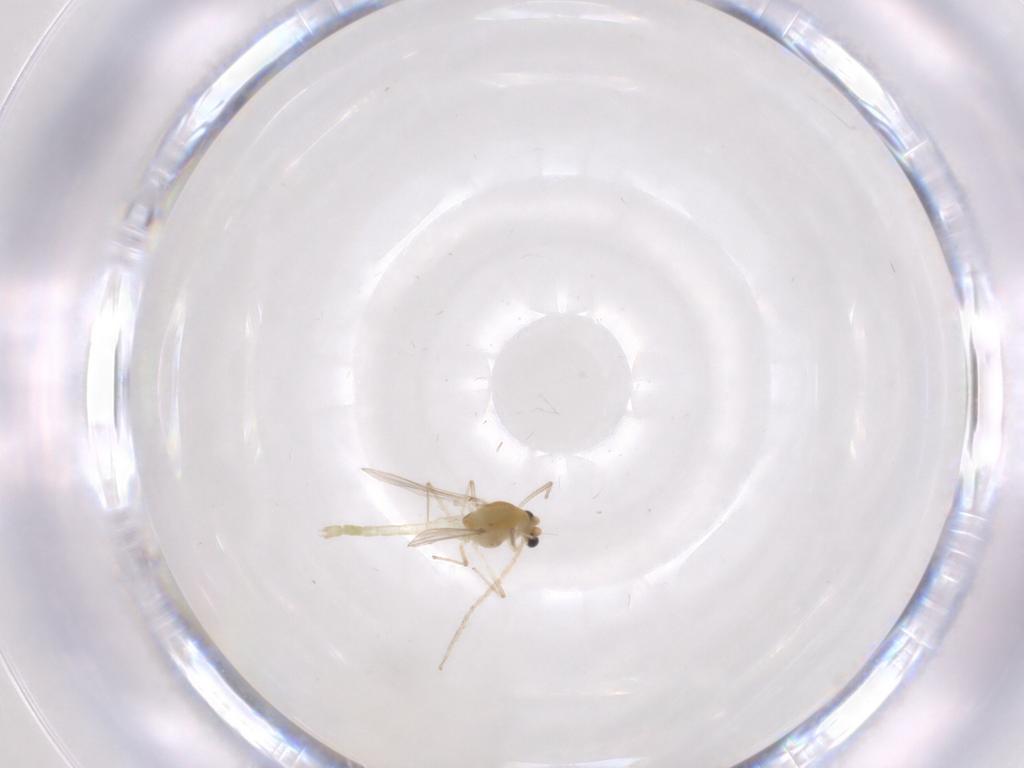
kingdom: Animalia
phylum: Arthropoda
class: Insecta
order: Diptera
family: Chironomidae
